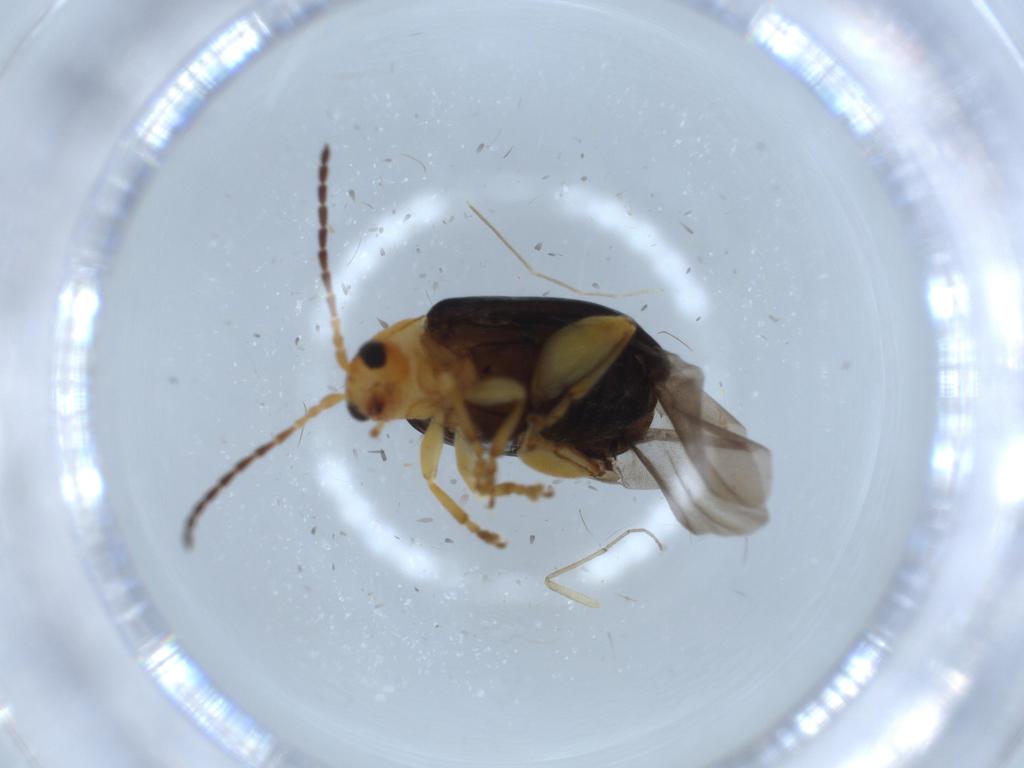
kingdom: Animalia
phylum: Arthropoda
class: Insecta
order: Coleoptera
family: Chrysomelidae
